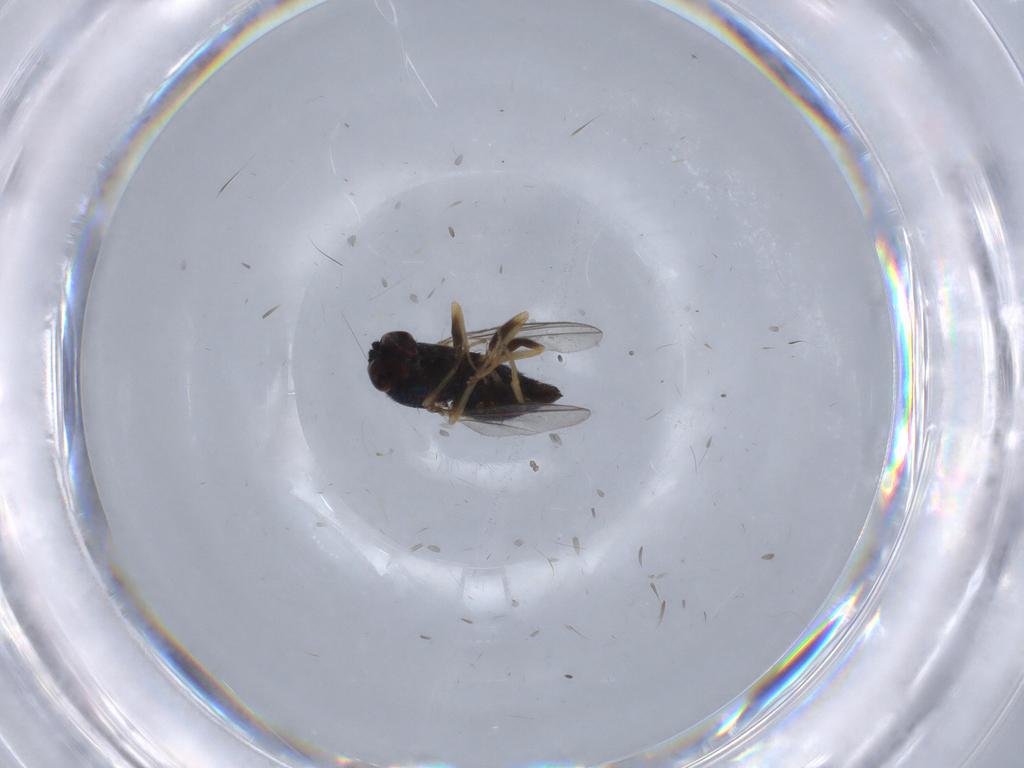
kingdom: Animalia
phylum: Arthropoda
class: Insecta
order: Diptera
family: Dolichopodidae
